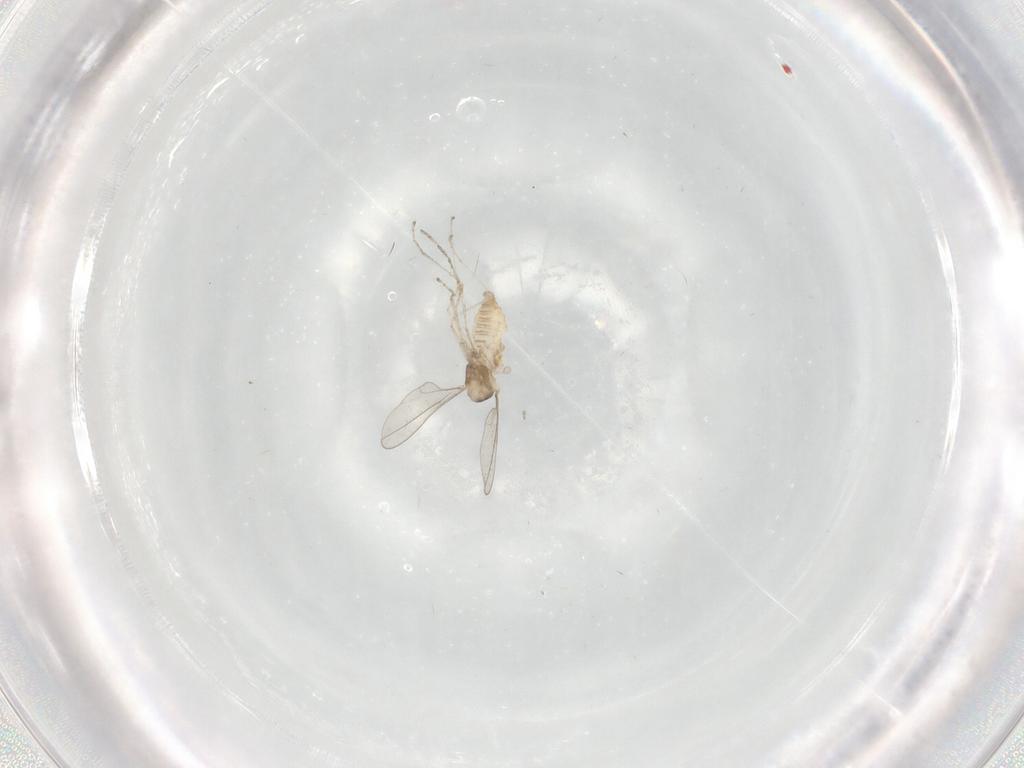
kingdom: Animalia
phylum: Arthropoda
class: Insecta
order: Diptera
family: Cecidomyiidae
